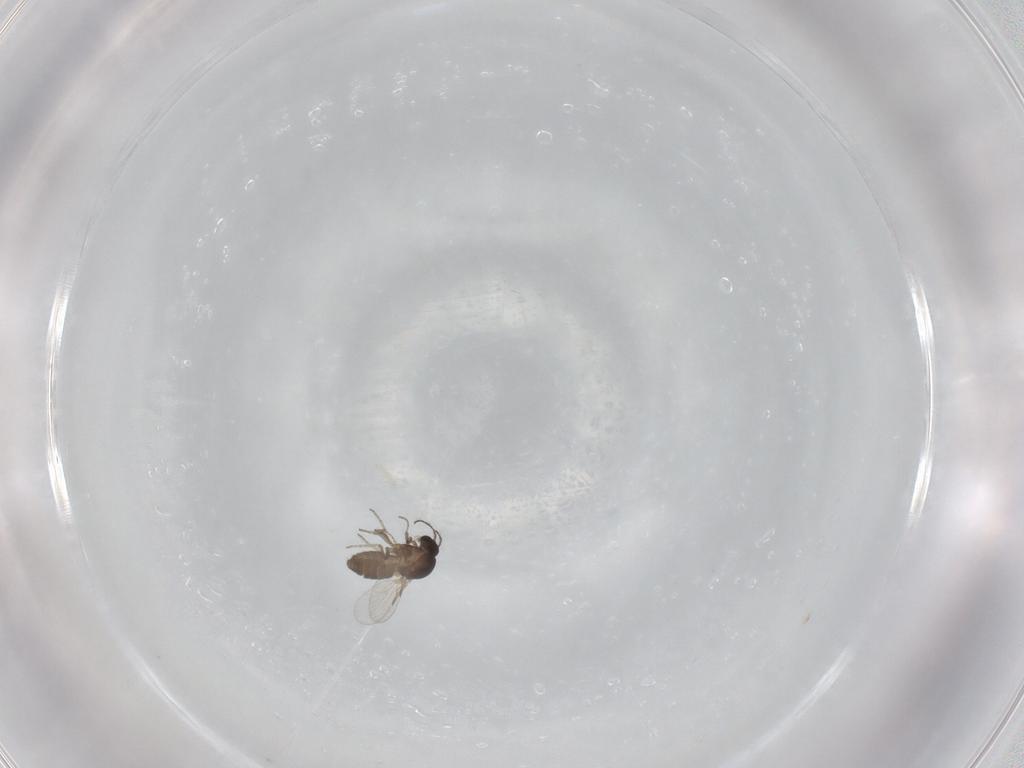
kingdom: Animalia
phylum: Arthropoda
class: Insecta
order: Diptera
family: Ceratopogonidae
